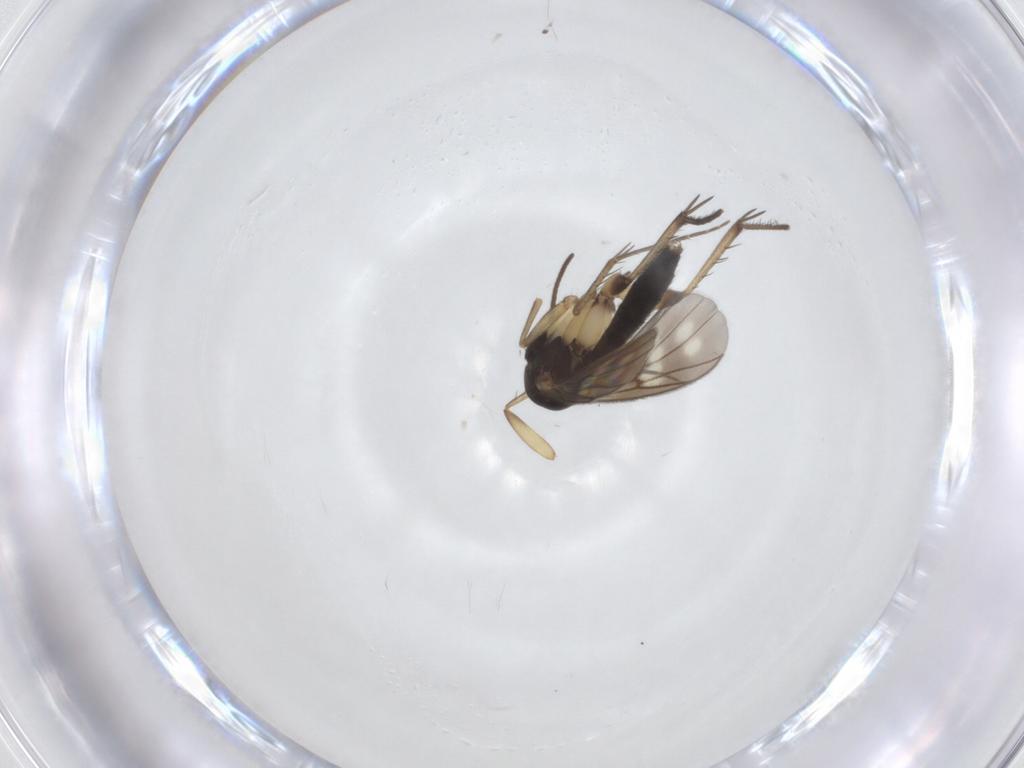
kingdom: Animalia
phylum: Arthropoda
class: Insecta
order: Diptera
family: Mycetophilidae
